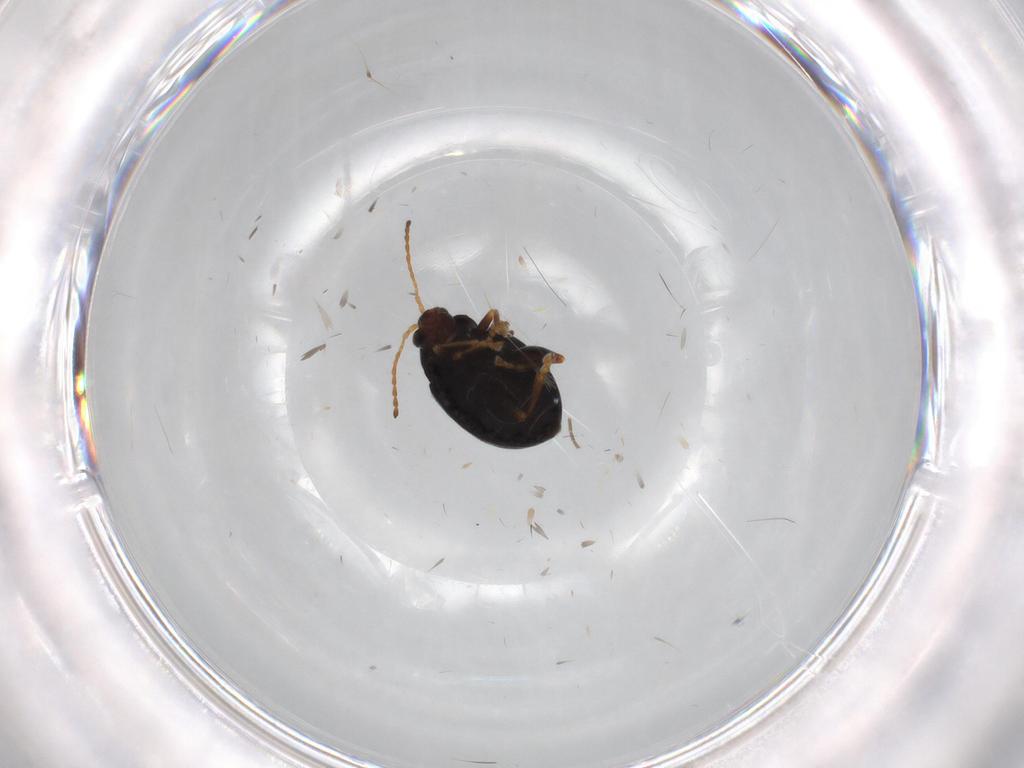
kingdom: Animalia
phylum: Arthropoda
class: Insecta
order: Coleoptera
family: Chrysomelidae
